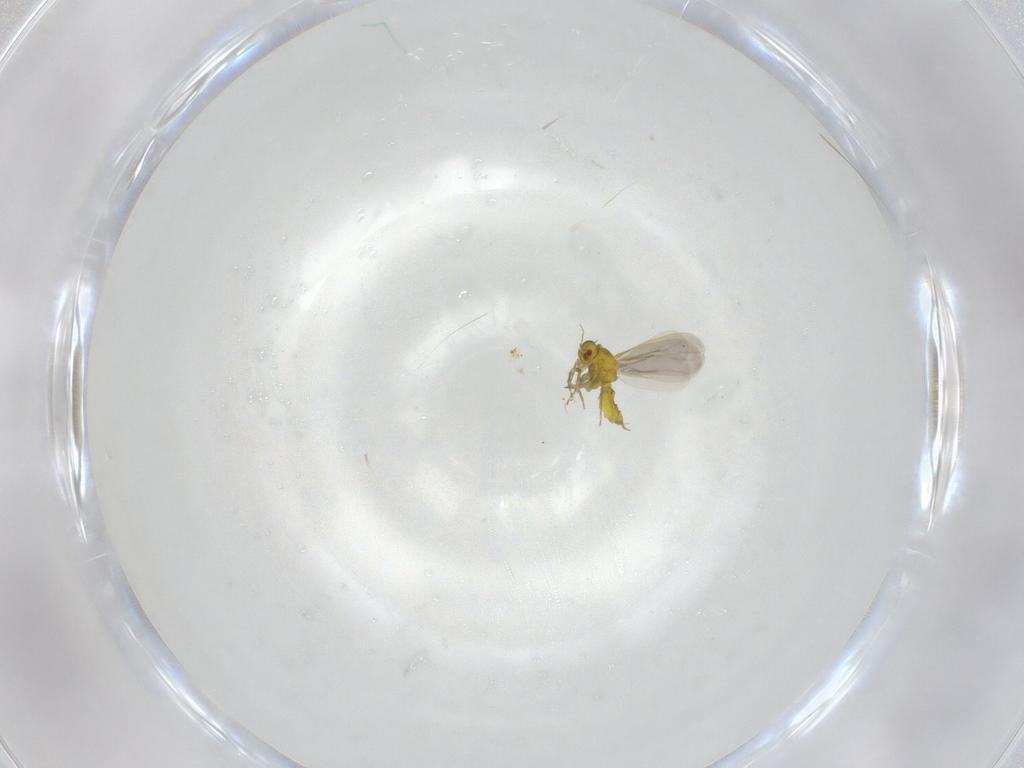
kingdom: Animalia
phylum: Arthropoda
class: Insecta
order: Hemiptera
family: Aleyrodidae
